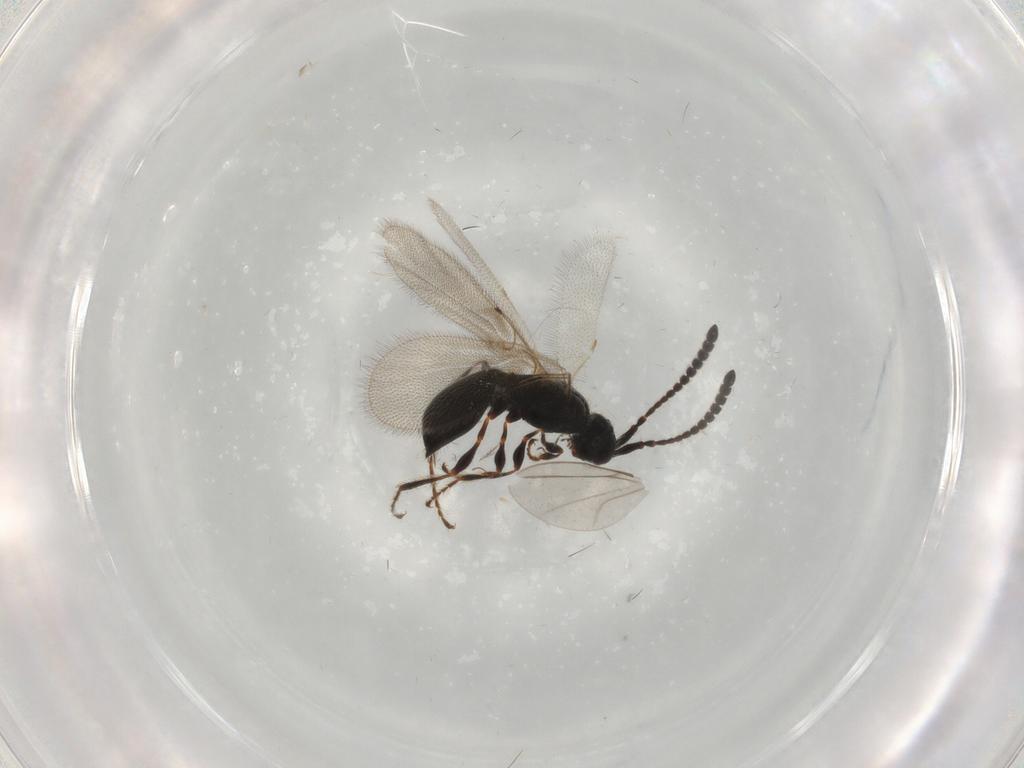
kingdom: Animalia
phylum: Arthropoda
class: Insecta
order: Hymenoptera
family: Diapriidae
